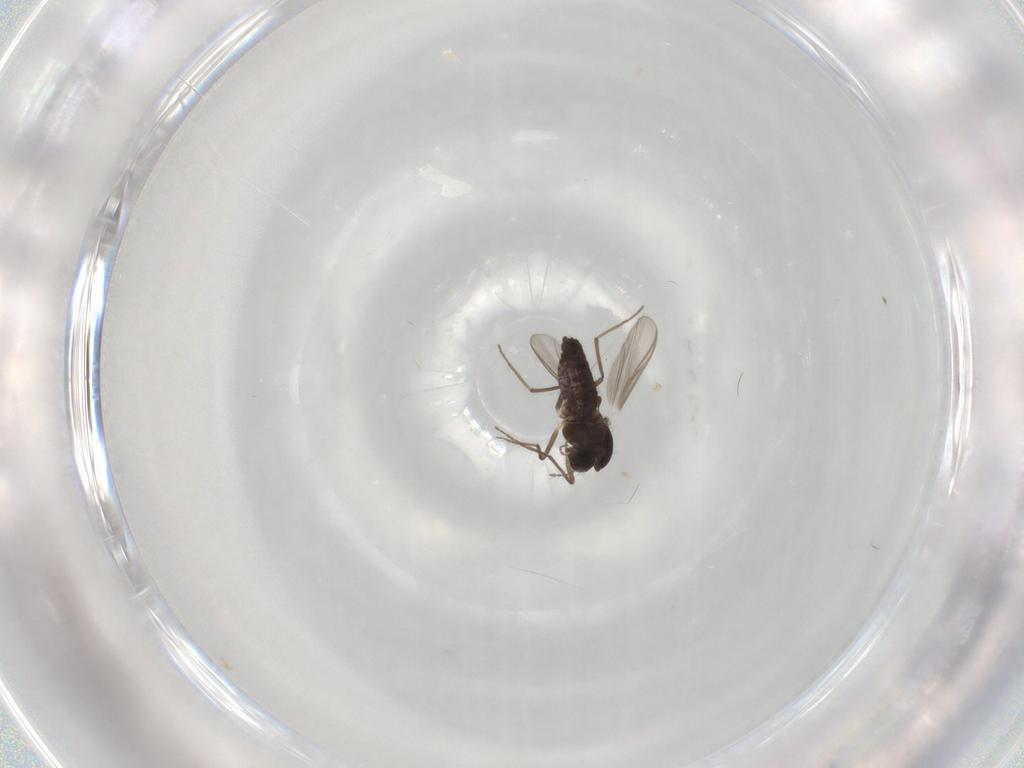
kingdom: Animalia
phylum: Arthropoda
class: Insecta
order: Diptera
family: Chironomidae
